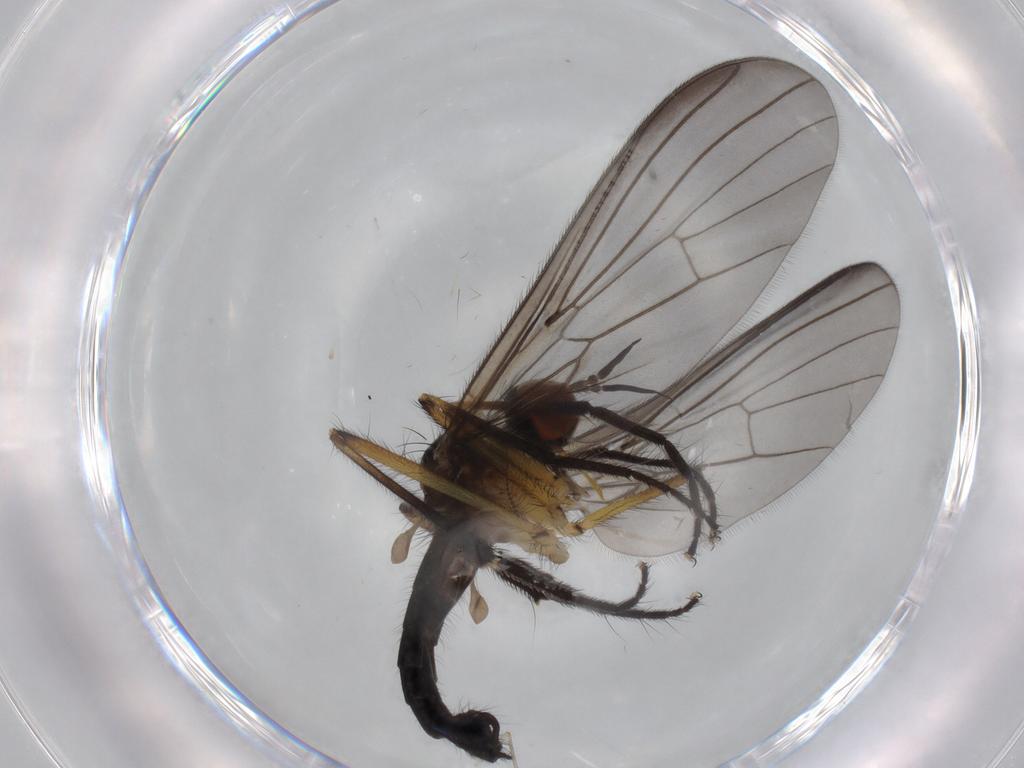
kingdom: Animalia
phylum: Arthropoda
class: Insecta
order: Diptera
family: Empididae
